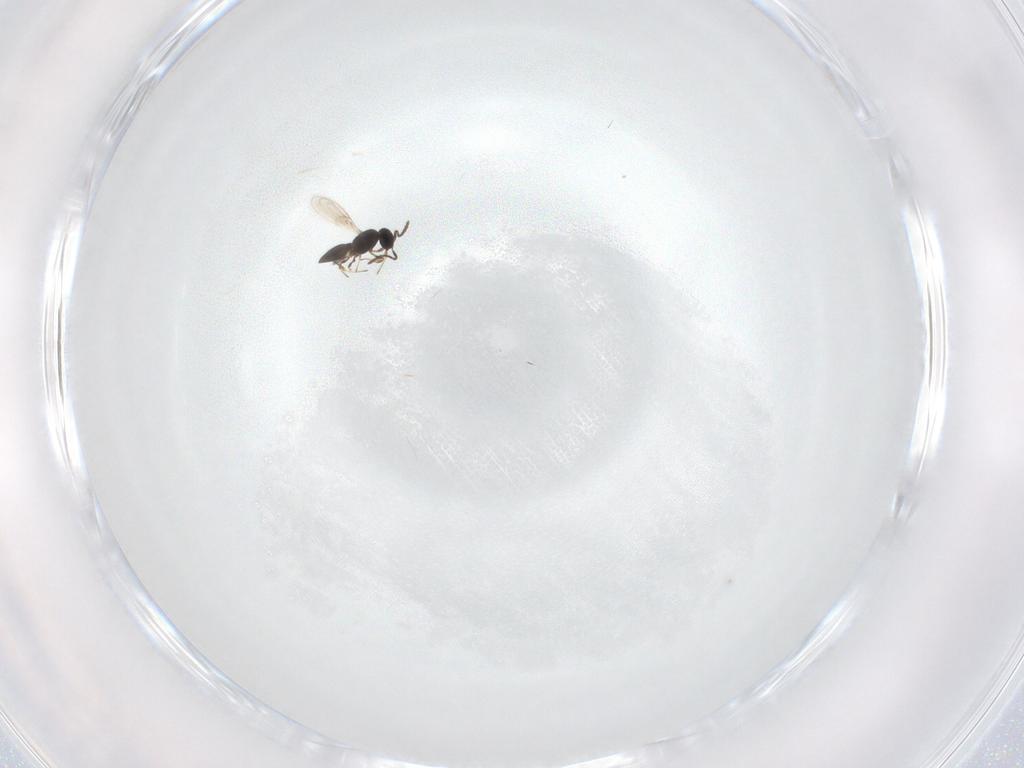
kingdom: Animalia
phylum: Arthropoda
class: Insecta
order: Hymenoptera
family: Scelionidae
